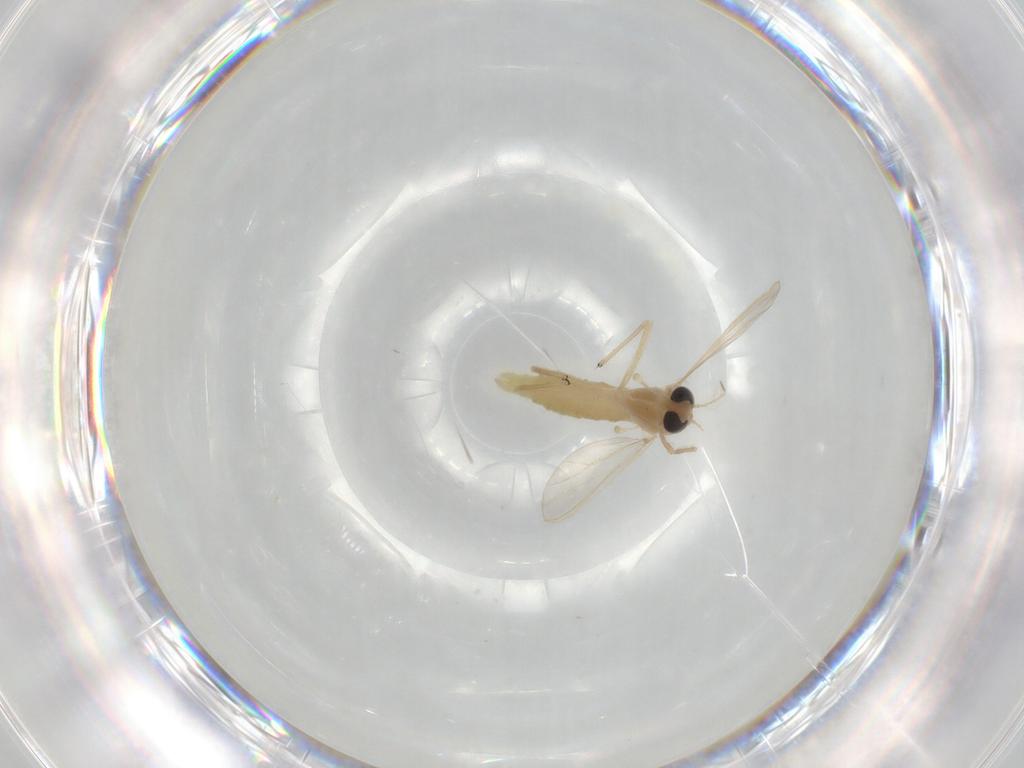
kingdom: Animalia
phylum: Arthropoda
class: Insecta
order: Diptera
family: Chironomidae
